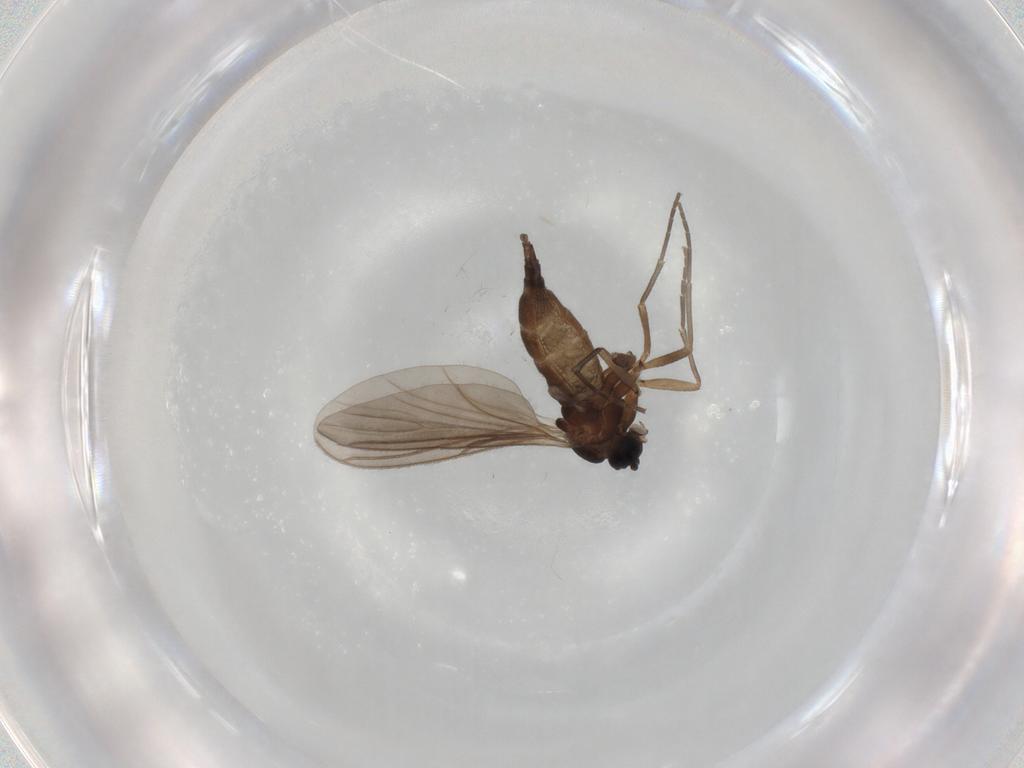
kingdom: Animalia
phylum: Arthropoda
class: Insecta
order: Diptera
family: Sciaridae
